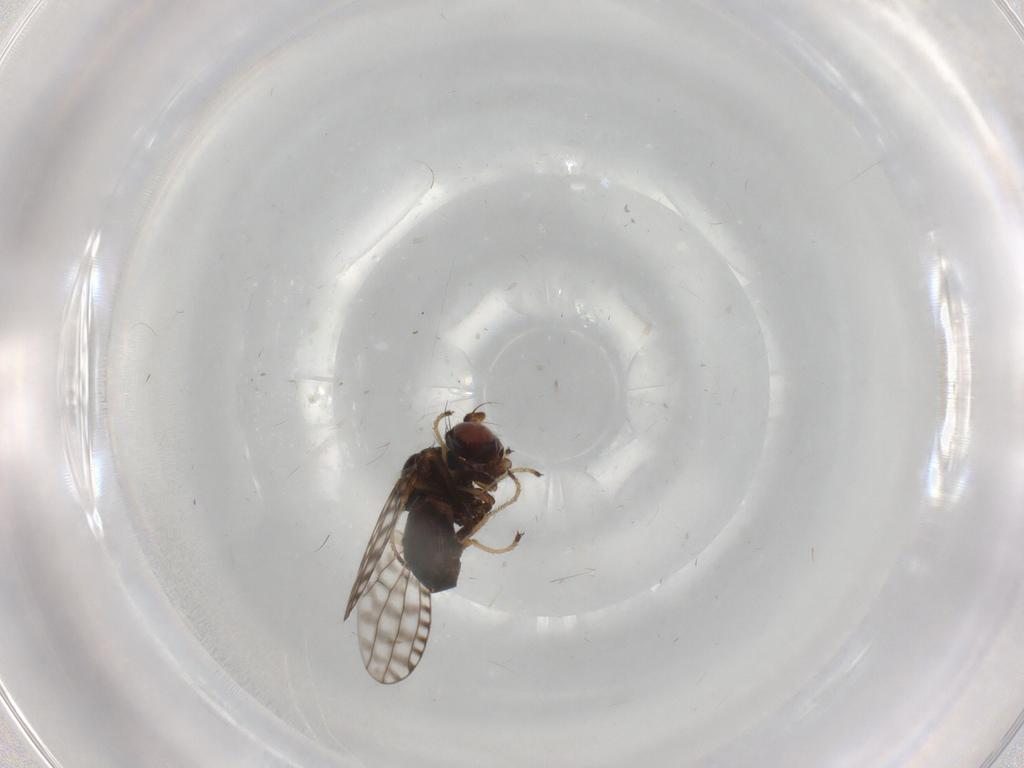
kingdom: Animalia
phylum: Arthropoda
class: Insecta
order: Diptera
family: Ephydridae
